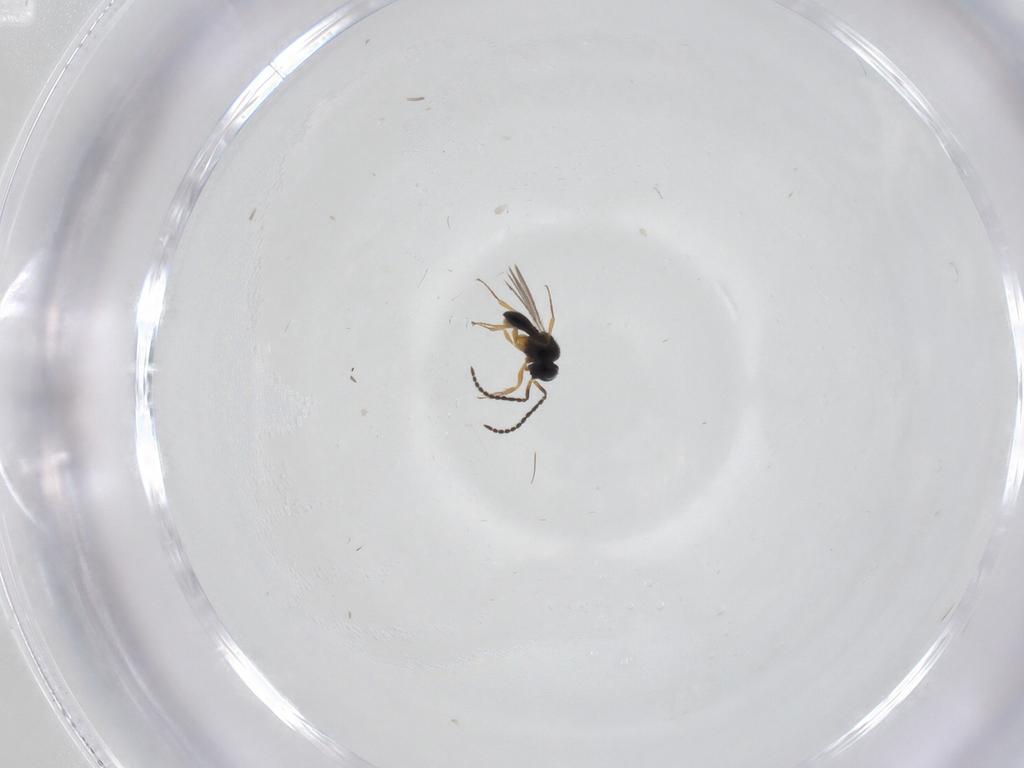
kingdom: Animalia
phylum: Arthropoda
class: Insecta
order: Hymenoptera
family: Scelionidae
